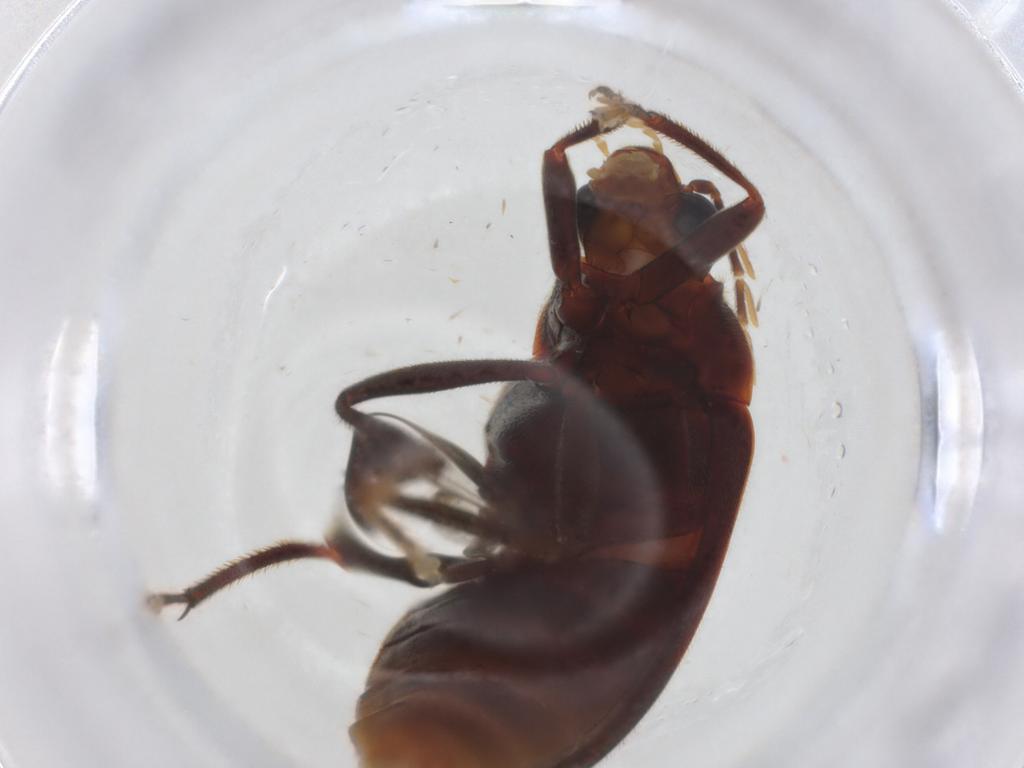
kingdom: Animalia
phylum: Arthropoda
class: Insecta
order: Coleoptera
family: Ptilodactylidae
